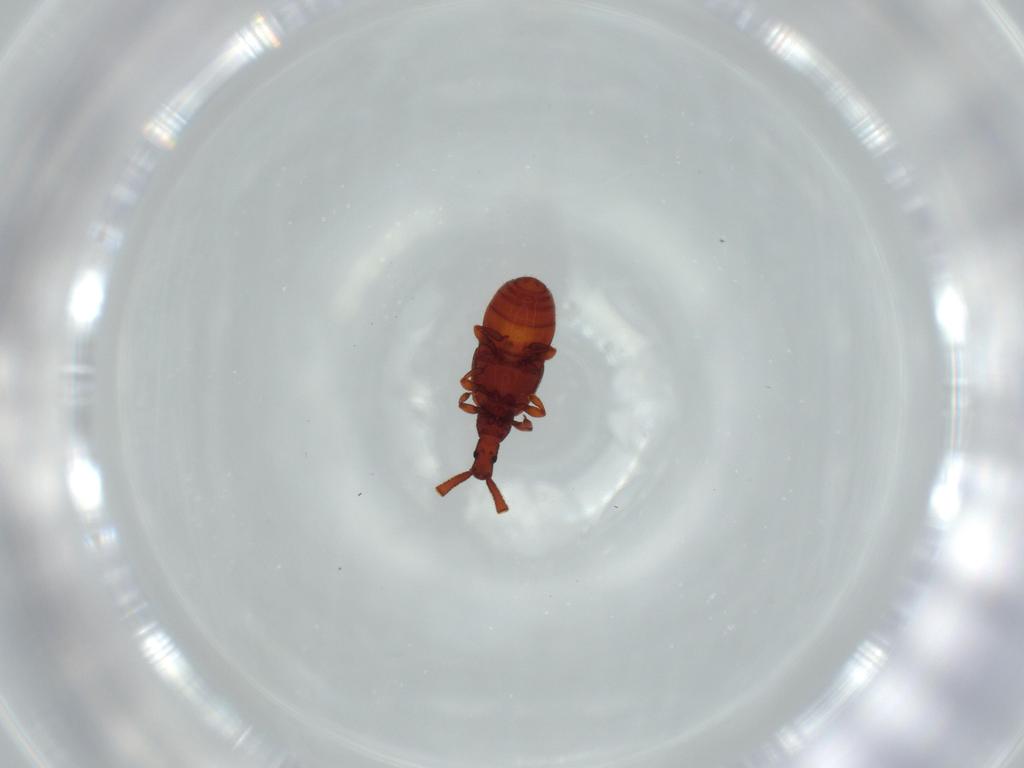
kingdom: Animalia
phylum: Arthropoda
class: Insecta
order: Coleoptera
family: Staphylinidae
